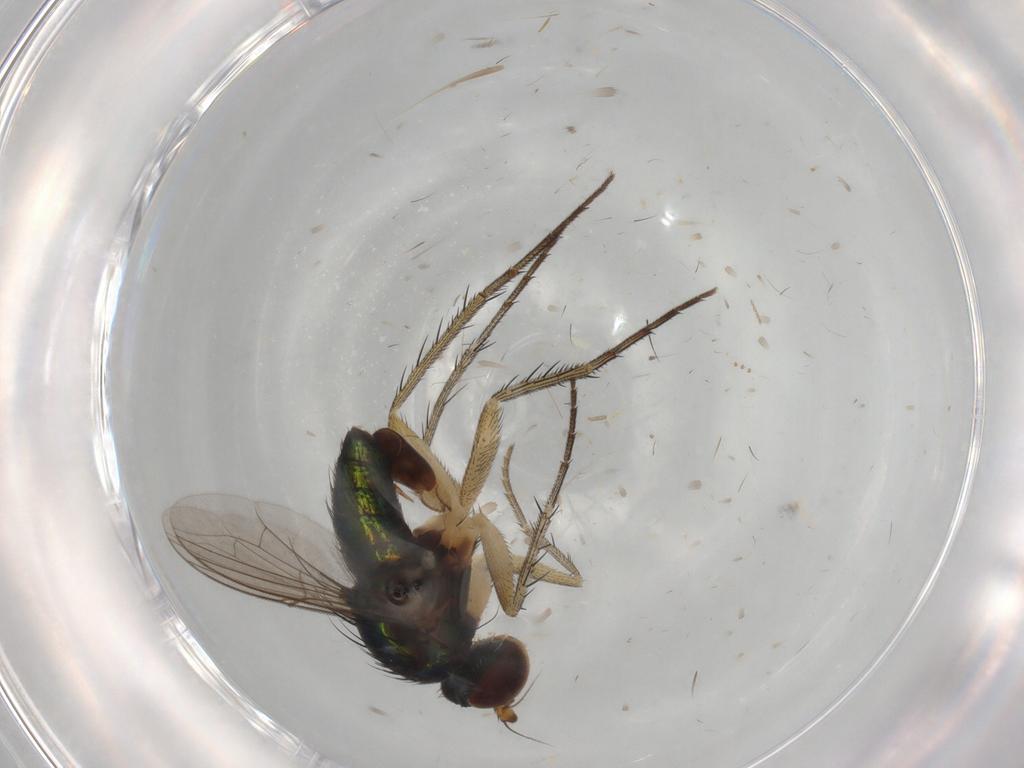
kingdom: Animalia
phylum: Arthropoda
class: Insecta
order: Diptera
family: Dolichopodidae
